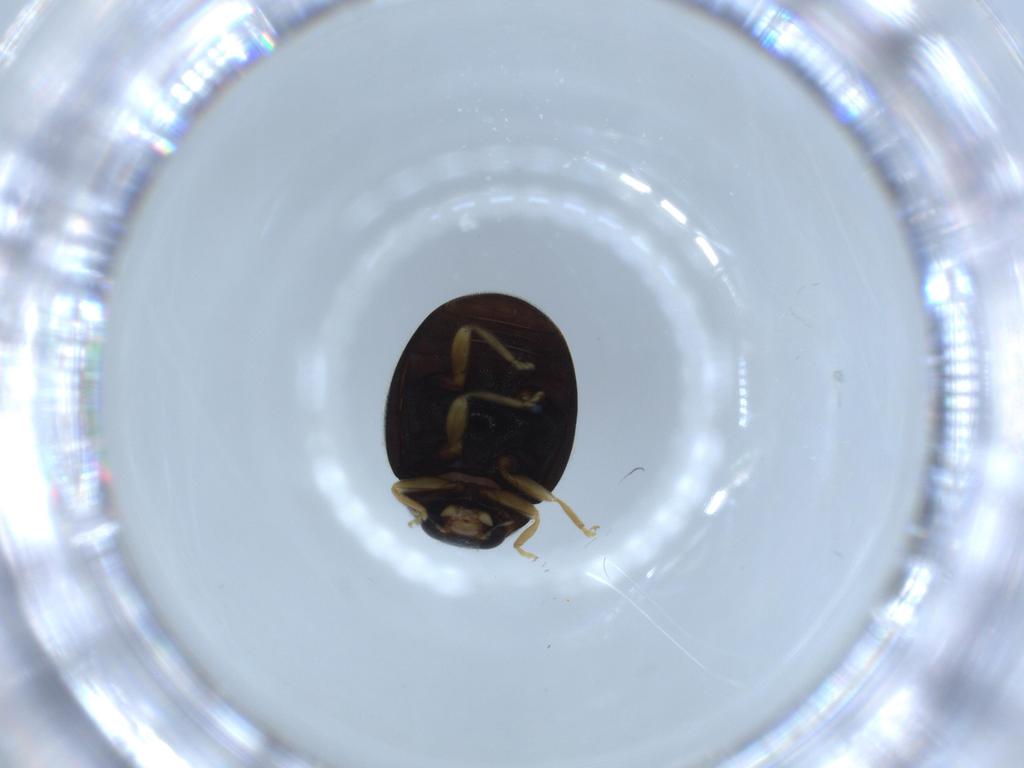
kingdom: Animalia
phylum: Arthropoda
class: Insecta
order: Coleoptera
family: Coccinellidae
